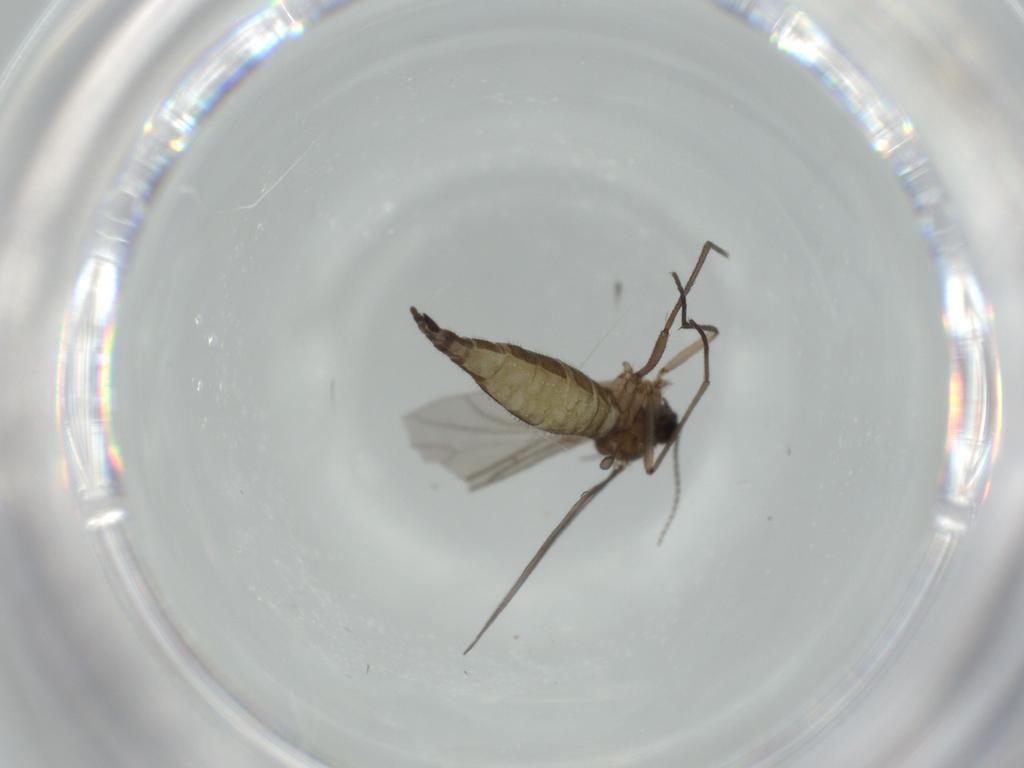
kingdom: Animalia
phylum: Arthropoda
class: Insecta
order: Diptera
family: Sciaridae
